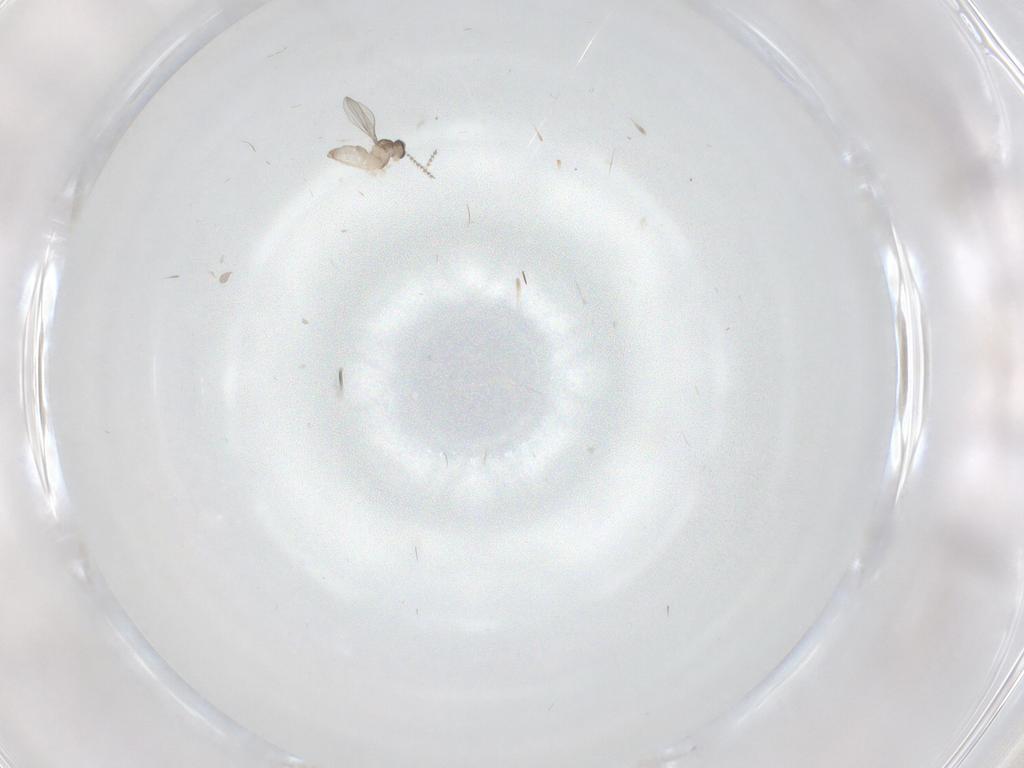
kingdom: Animalia
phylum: Arthropoda
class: Insecta
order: Diptera
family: Cecidomyiidae
